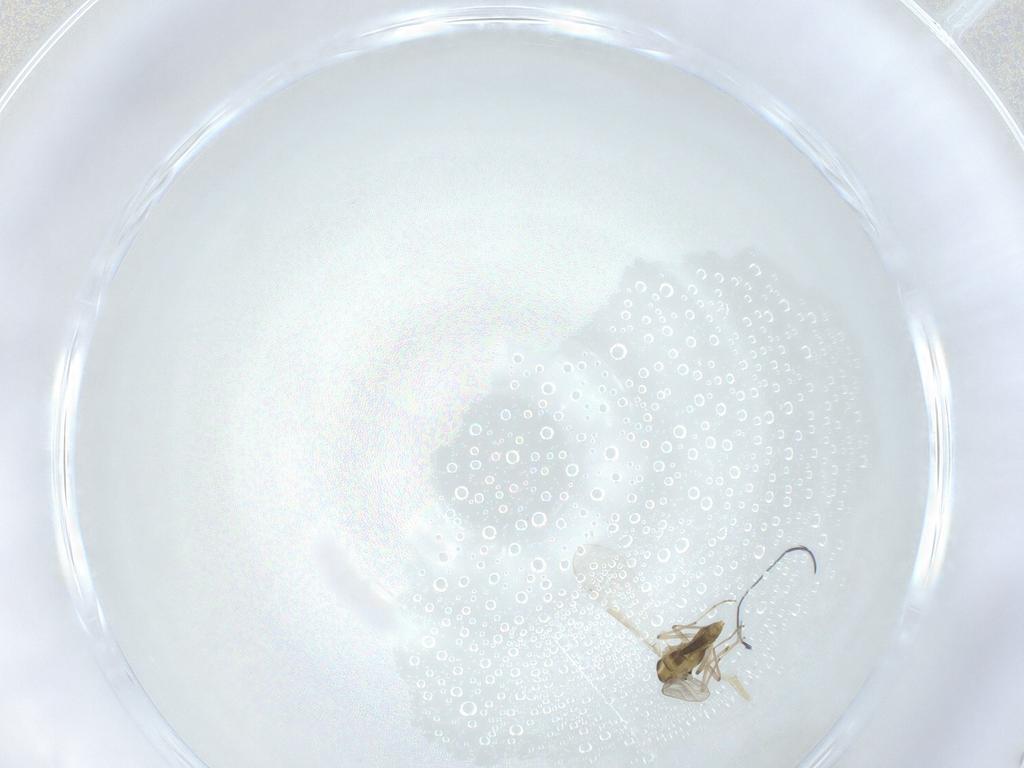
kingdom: Animalia
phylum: Arthropoda
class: Insecta
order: Diptera
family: Chironomidae
